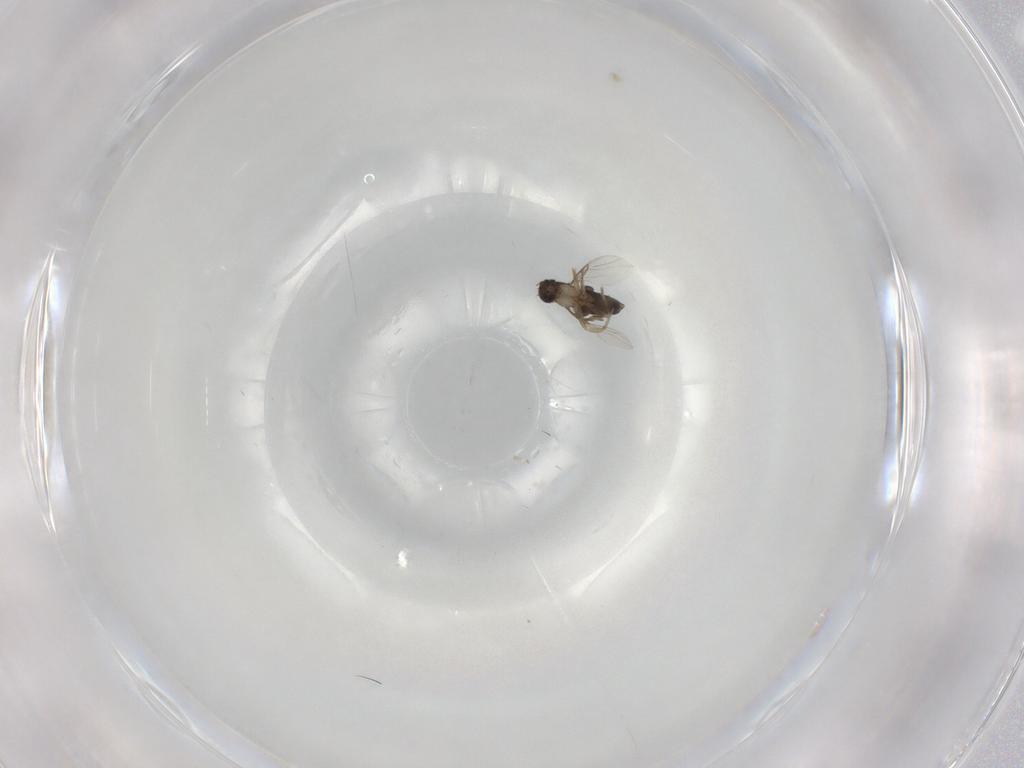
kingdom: Animalia
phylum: Arthropoda
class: Insecta
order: Diptera
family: Phoridae
